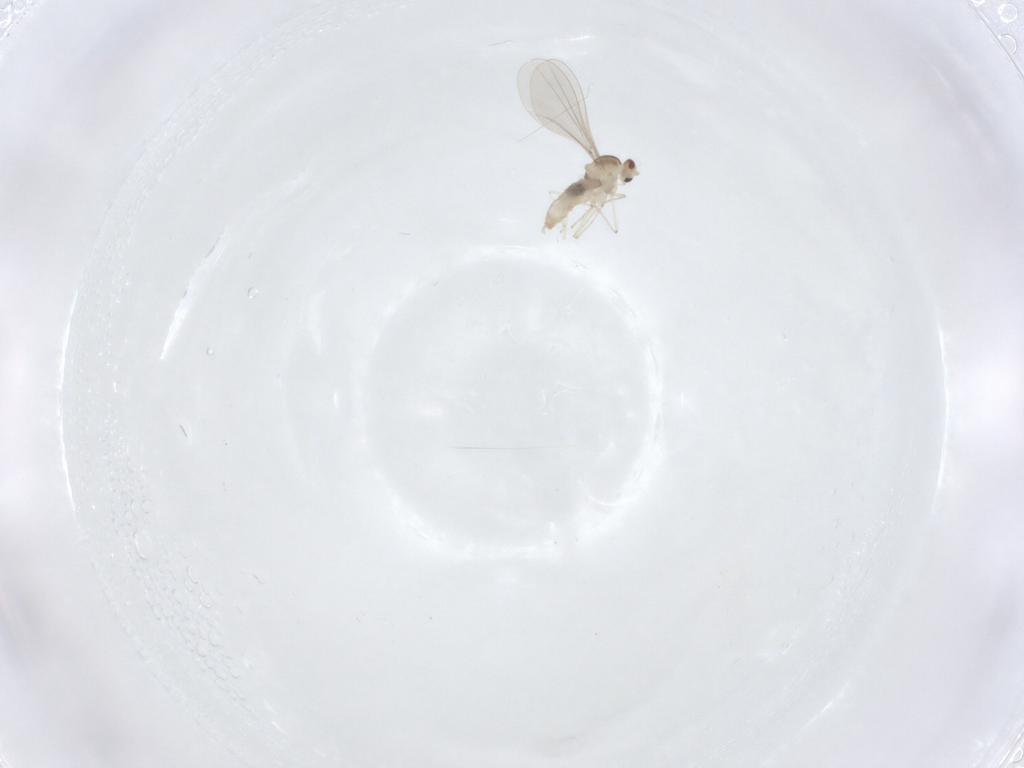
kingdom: Animalia
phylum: Arthropoda
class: Insecta
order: Diptera
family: Cecidomyiidae
